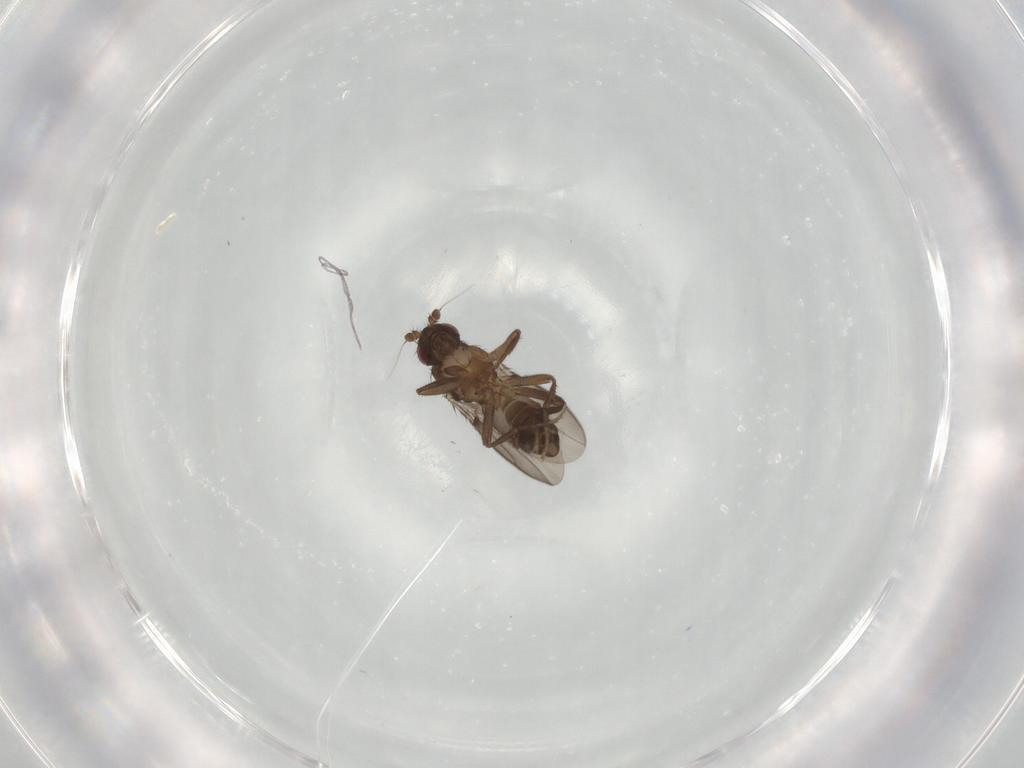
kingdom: Animalia
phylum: Arthropoda
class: Insecta
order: Diptera
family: Sphaeroceridae
